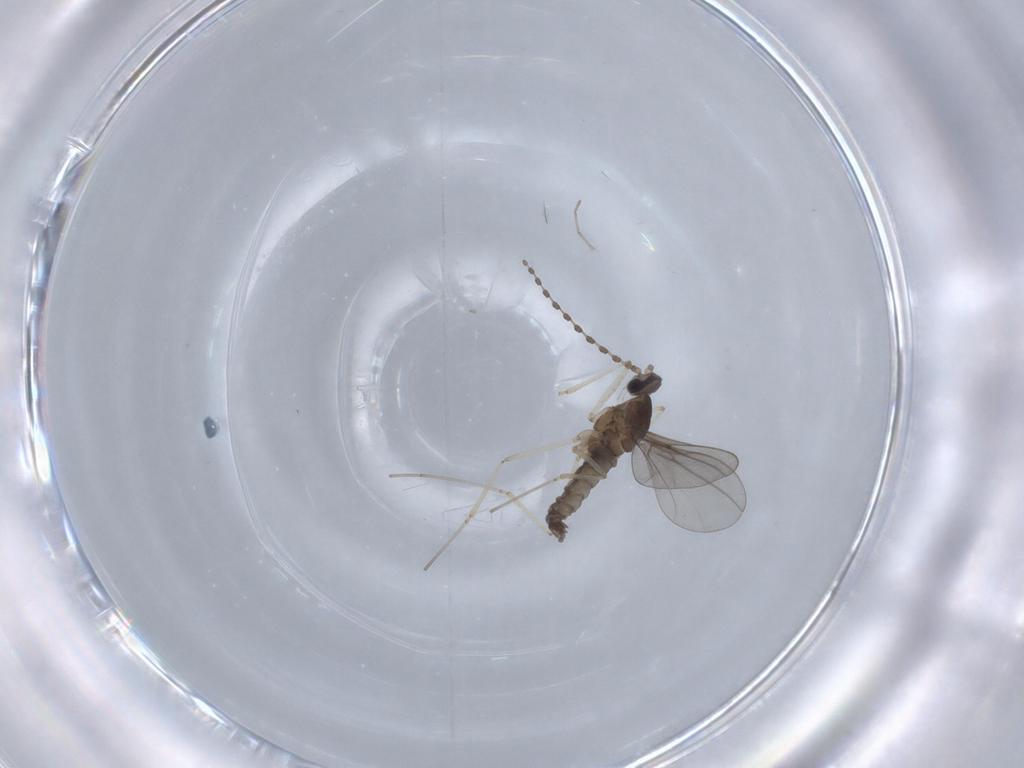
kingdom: Animalia
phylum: Arthropoda
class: Insecta
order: Diptera
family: Cecidomyiidae
